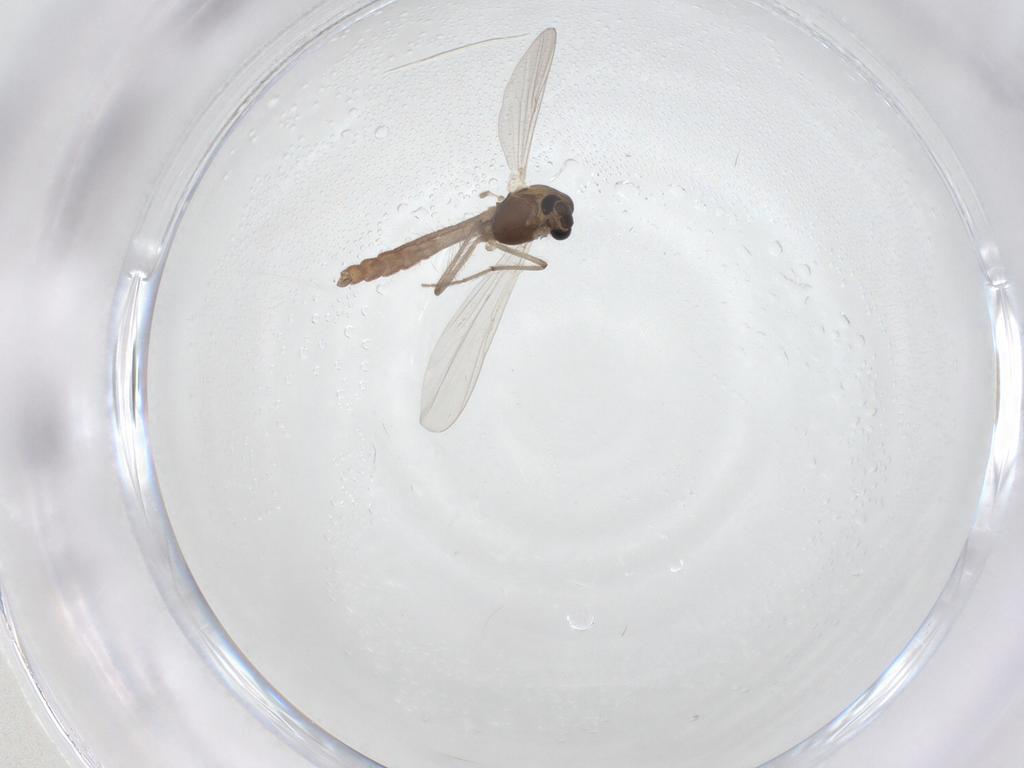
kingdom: Animalia
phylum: Arthropoda
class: Insecta
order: Diptera
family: Chironomidae
